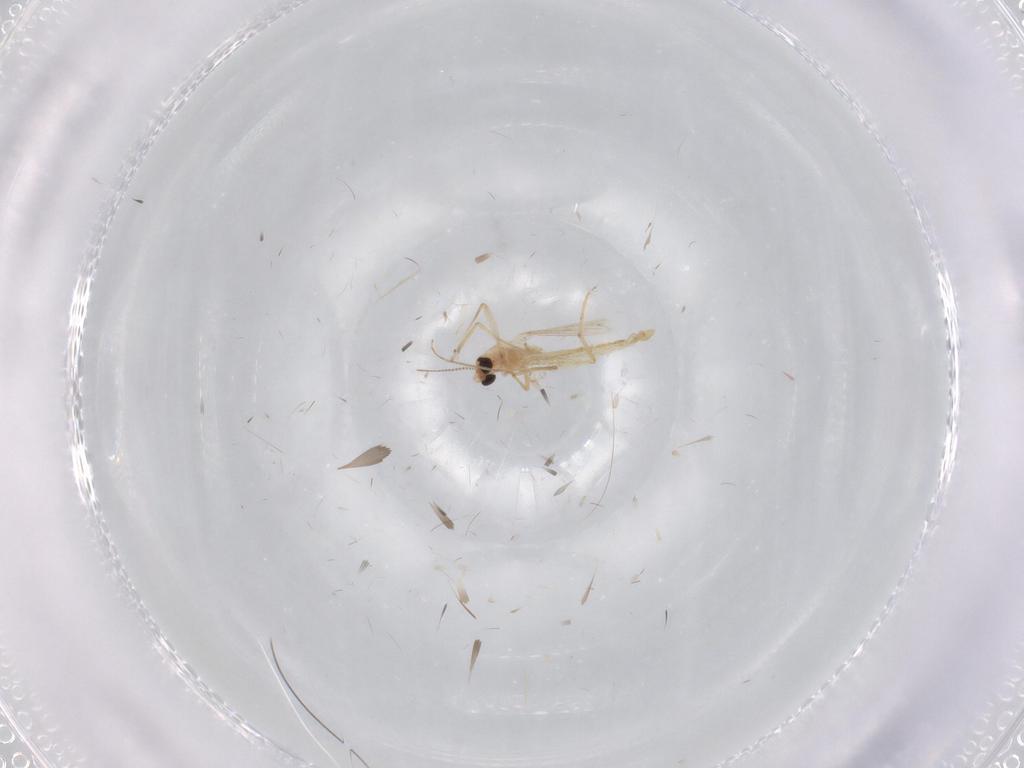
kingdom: Animalia
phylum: Arthropoda
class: Insecta
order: Diptera
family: Chironomidae
